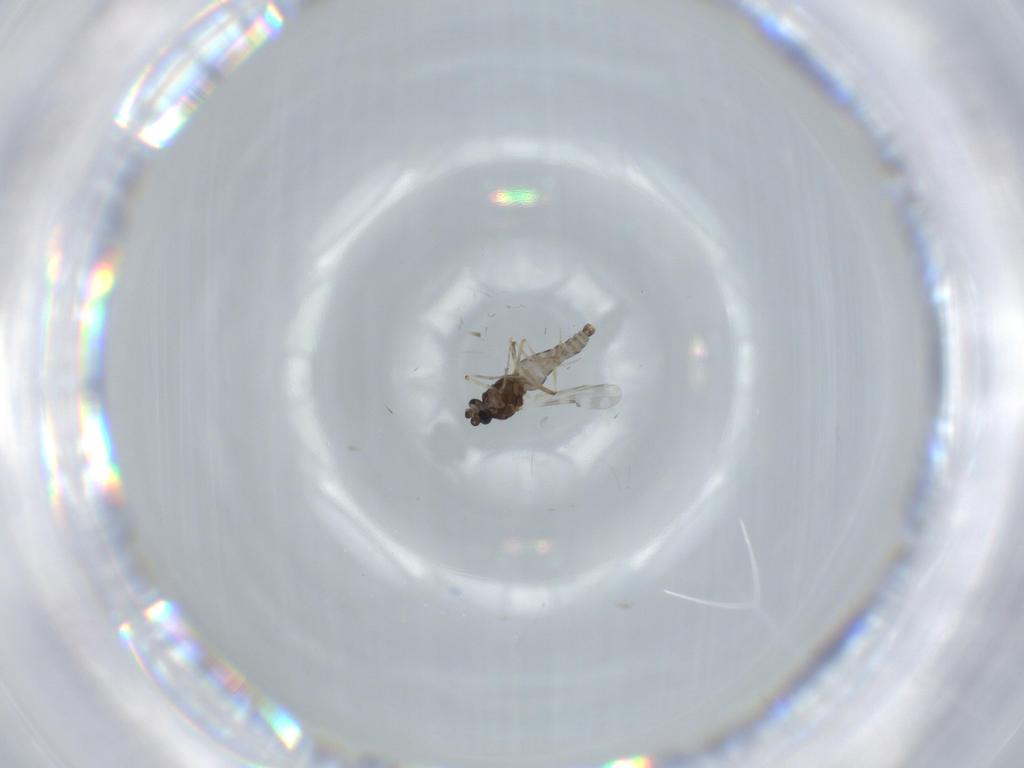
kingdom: Animalia
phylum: Arthropoda
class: Insecta
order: Diptera
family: Ceratopogonidae
